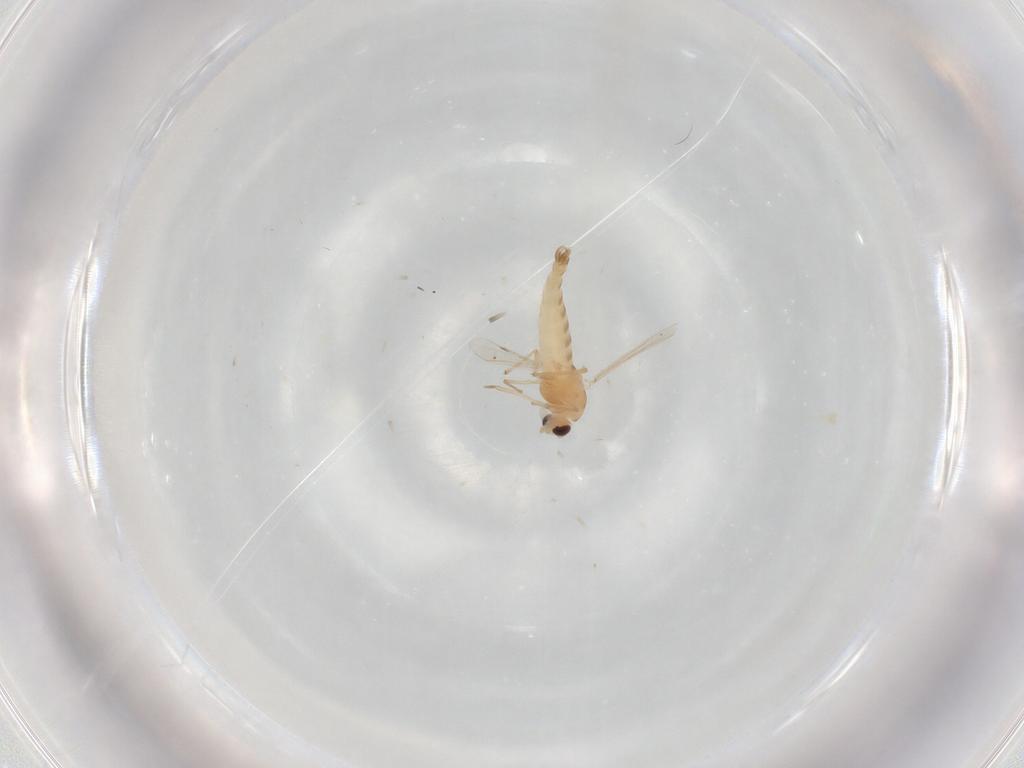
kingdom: Animalia
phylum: Arthropoda
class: Insecta
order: Diptera
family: Chironomidae
